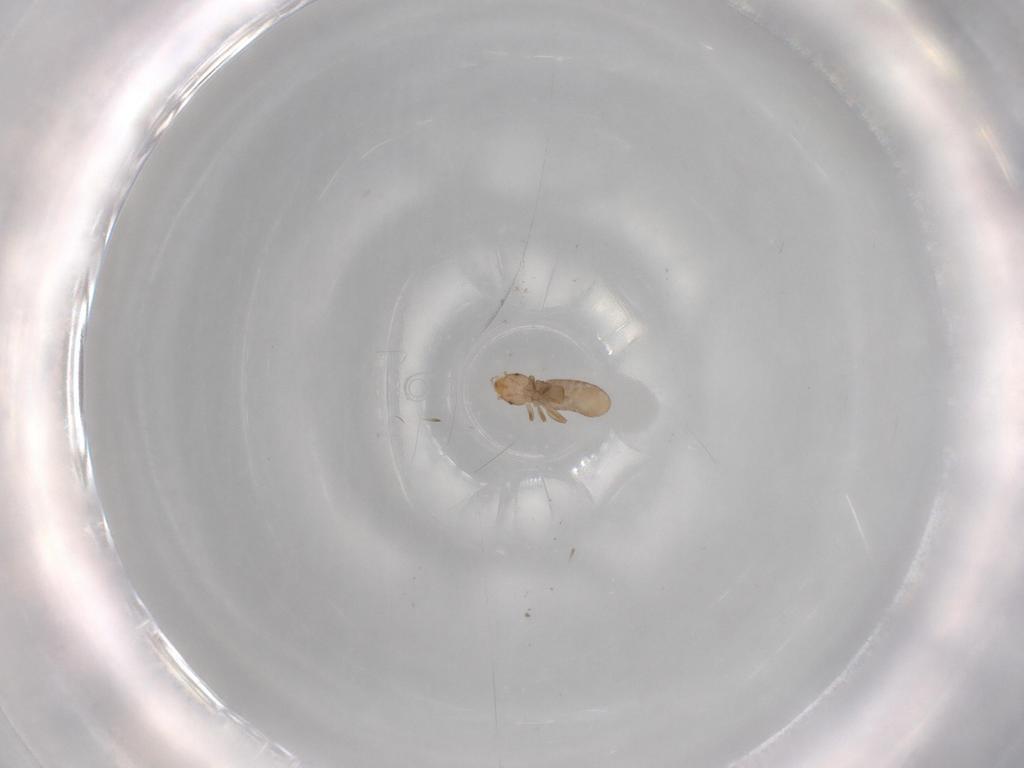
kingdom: Animalia
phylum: Arthropoda
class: Insecta
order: Psocodea
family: Liposcelididae
